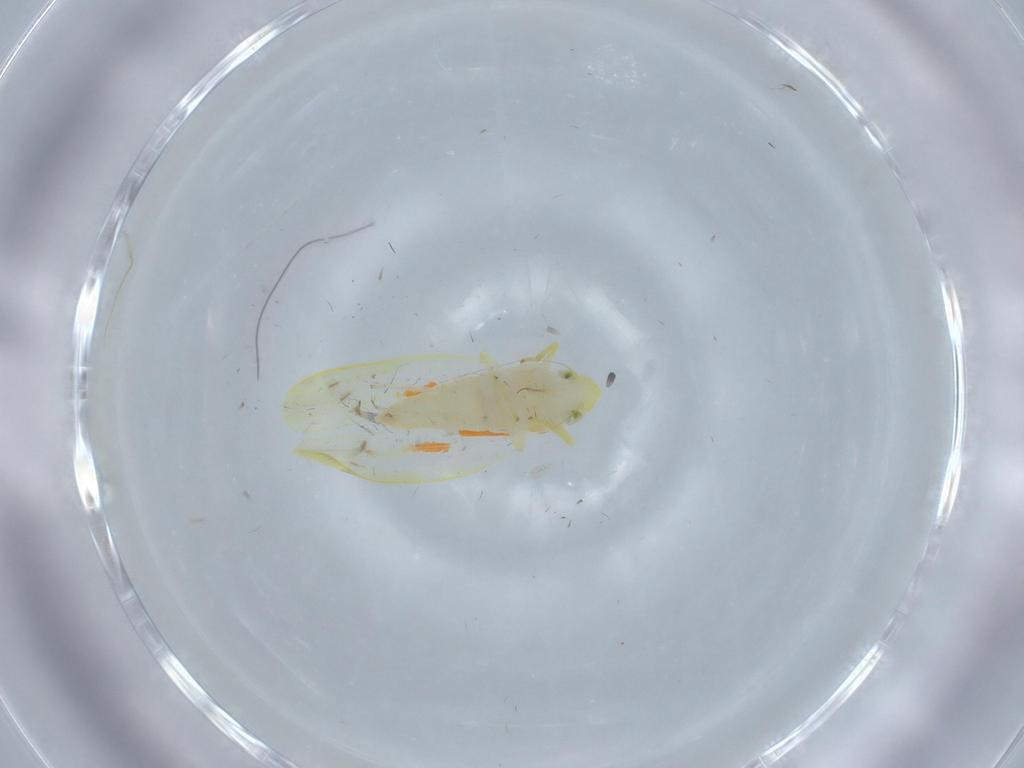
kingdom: Animalia
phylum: Arthropoda
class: Insecta
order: Hemiptera
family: Cicadellidae
